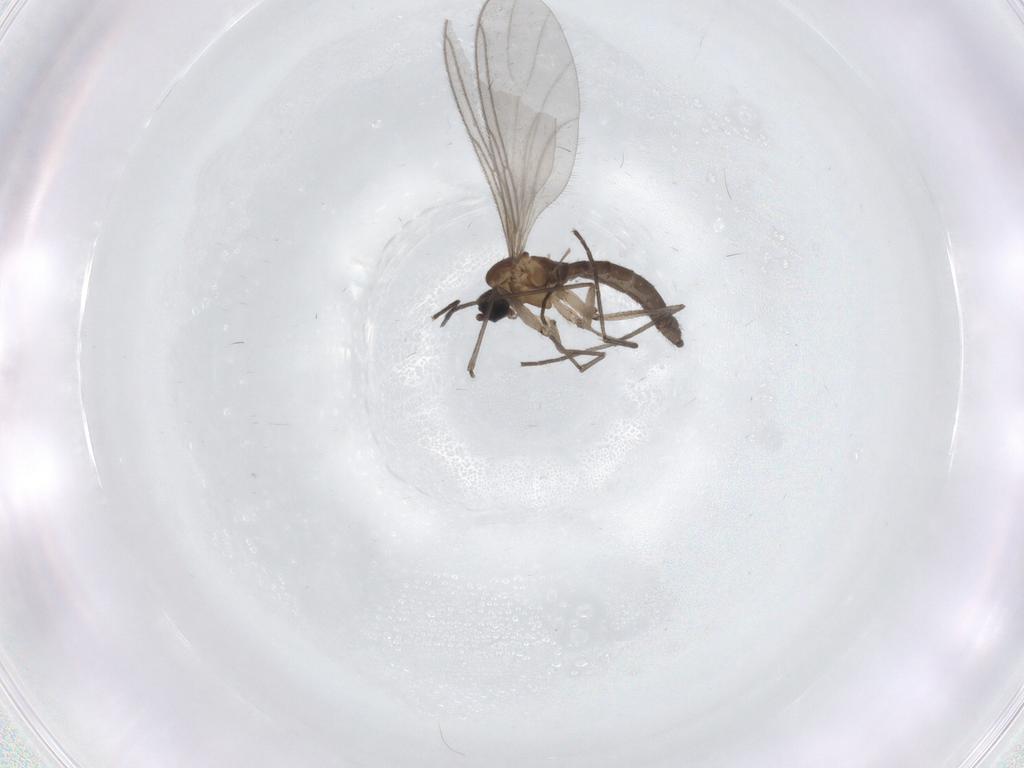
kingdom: Animalia
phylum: Arthropoda
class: Insecta
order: Diptera
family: Sciaridae
